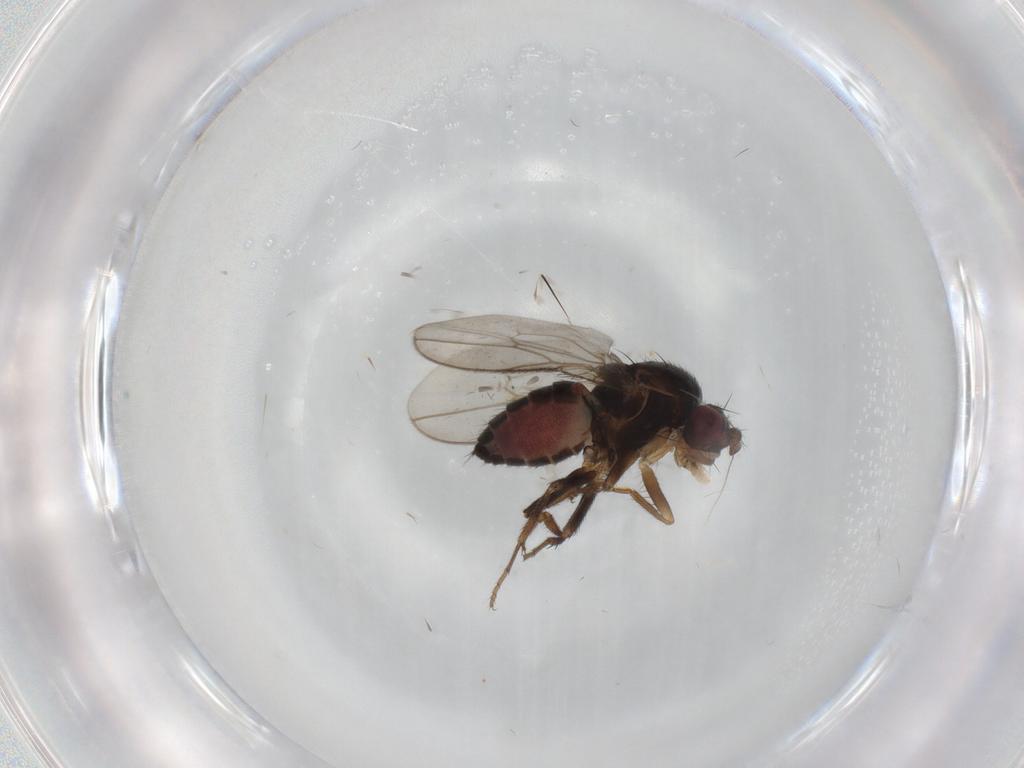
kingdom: Animalia
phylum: Arthropoda
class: Insecta
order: Diptera
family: Sphaeroceridae
